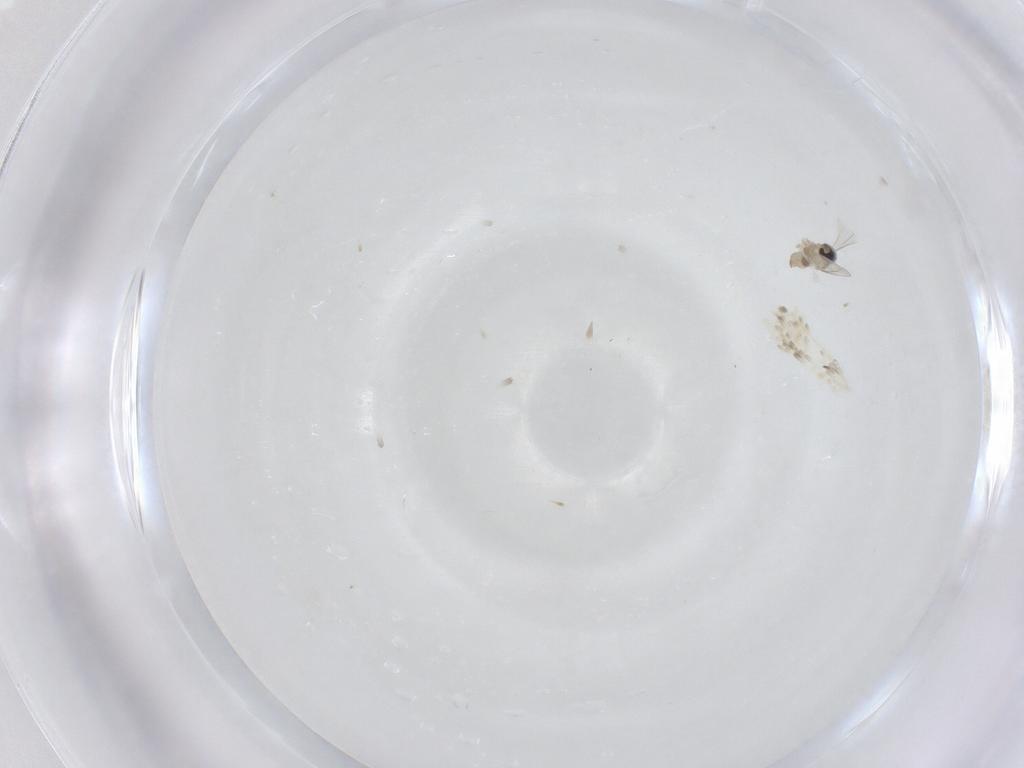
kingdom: Animalia
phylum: Arthropoda
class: Insecta
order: Diptera
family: Cecidomyiidae
